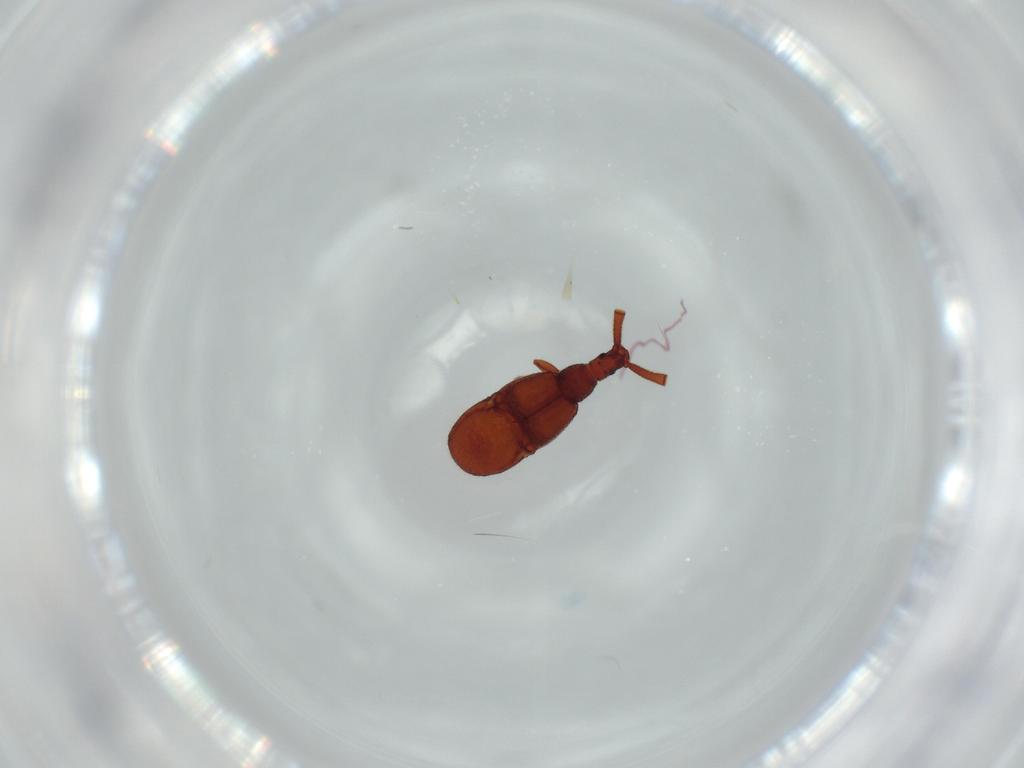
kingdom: Animalia
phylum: Arthropoda
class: Insecta
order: Coleoptera
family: Staphylinidae
